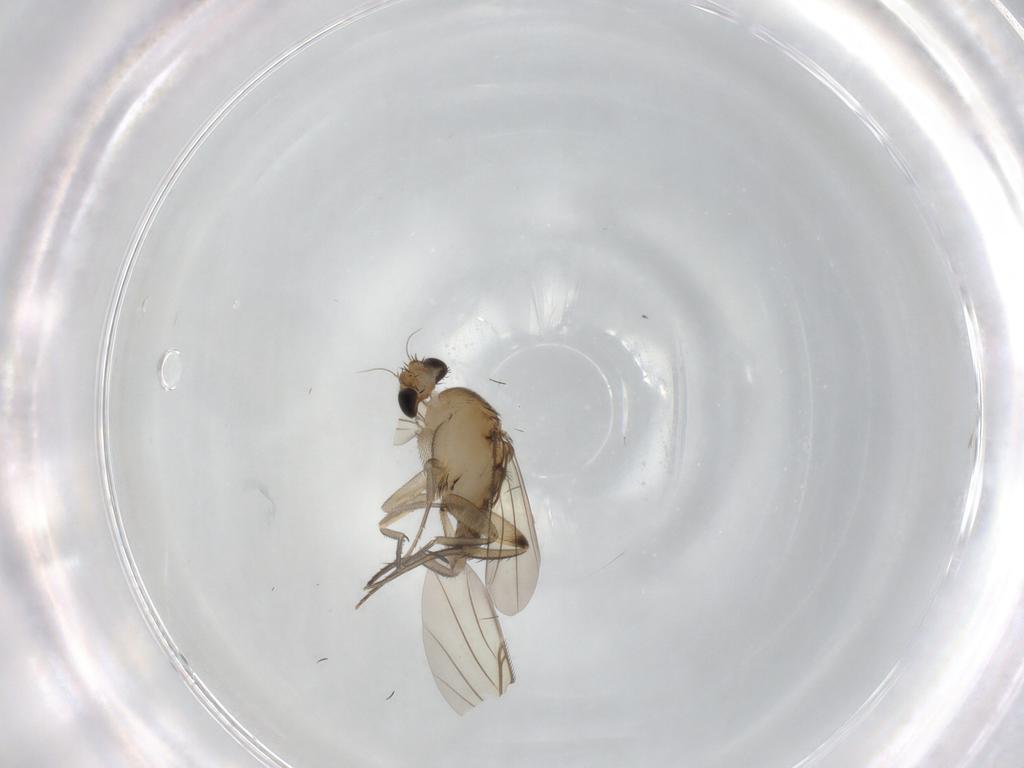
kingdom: Animalia
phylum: Arthropoda
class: Insecta
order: Diptera
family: Phoridae
